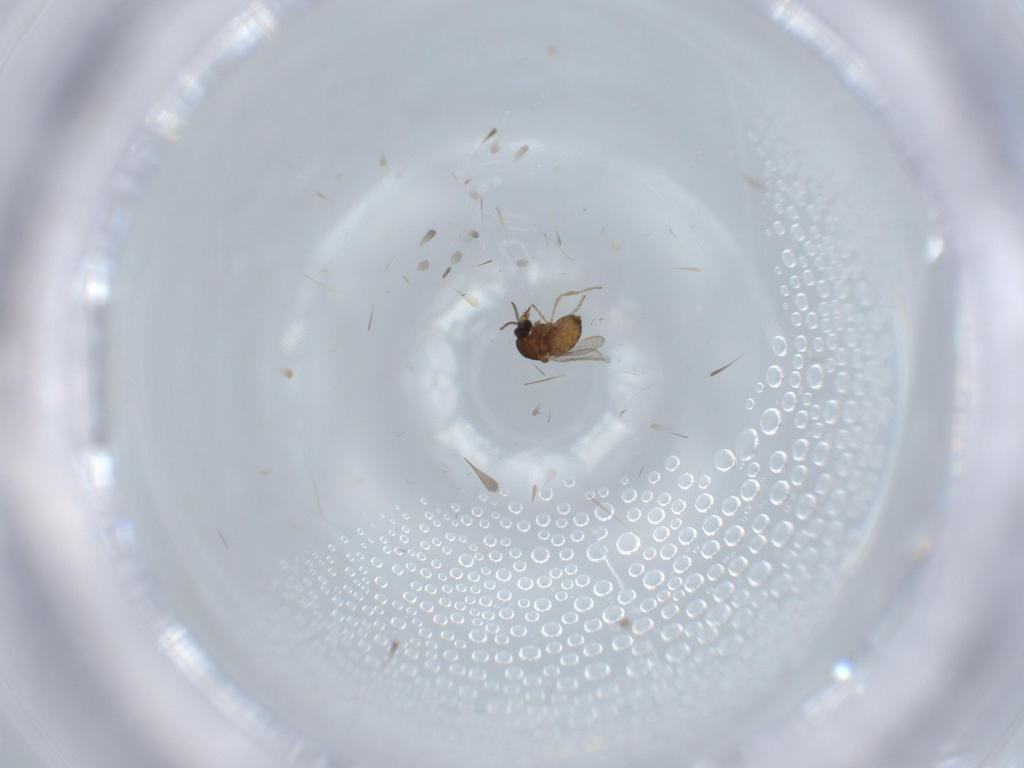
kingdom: Animalia
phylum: Arthropoda
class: Insecta
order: Diptera
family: Ceratopogonidae
